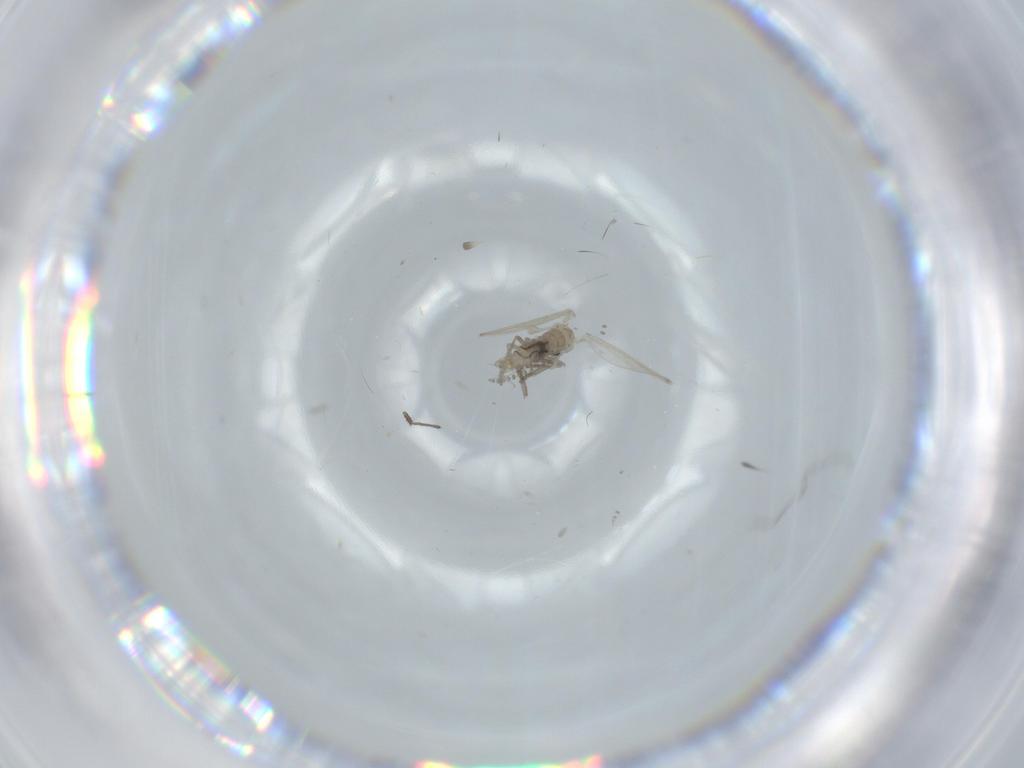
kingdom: Animalia
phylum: Arthropoda
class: Insecta
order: Diptera
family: Psychodidae
